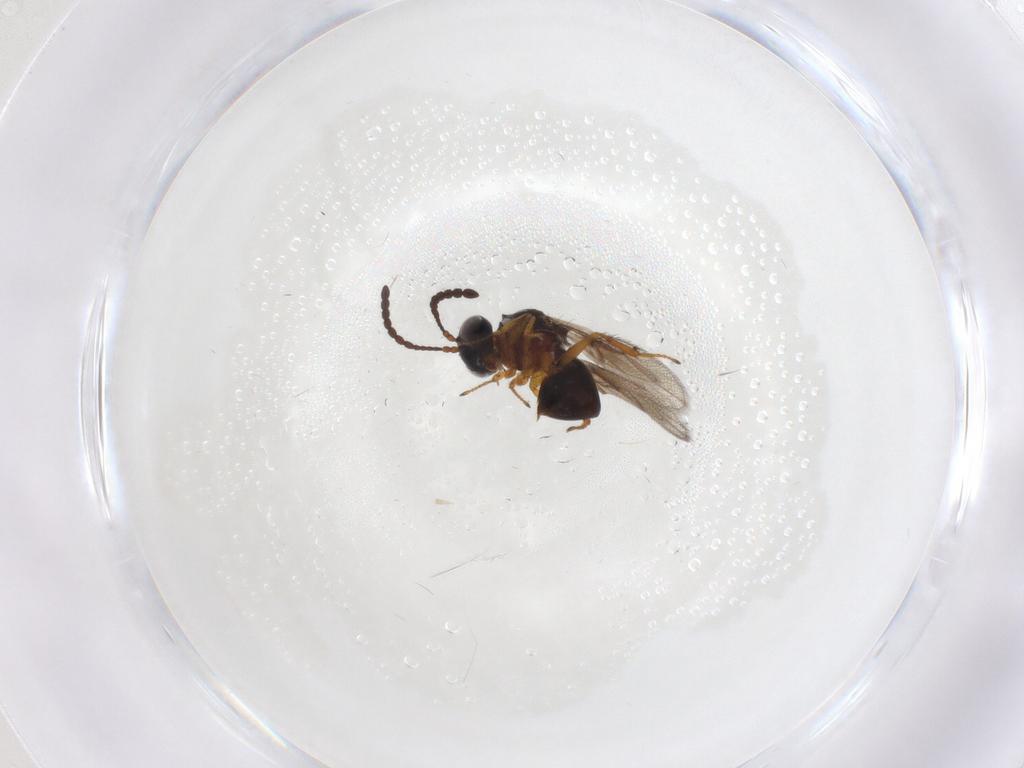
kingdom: Animalia
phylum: Arthropoda
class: Insecta
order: Hymenoptera
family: Figitidae
